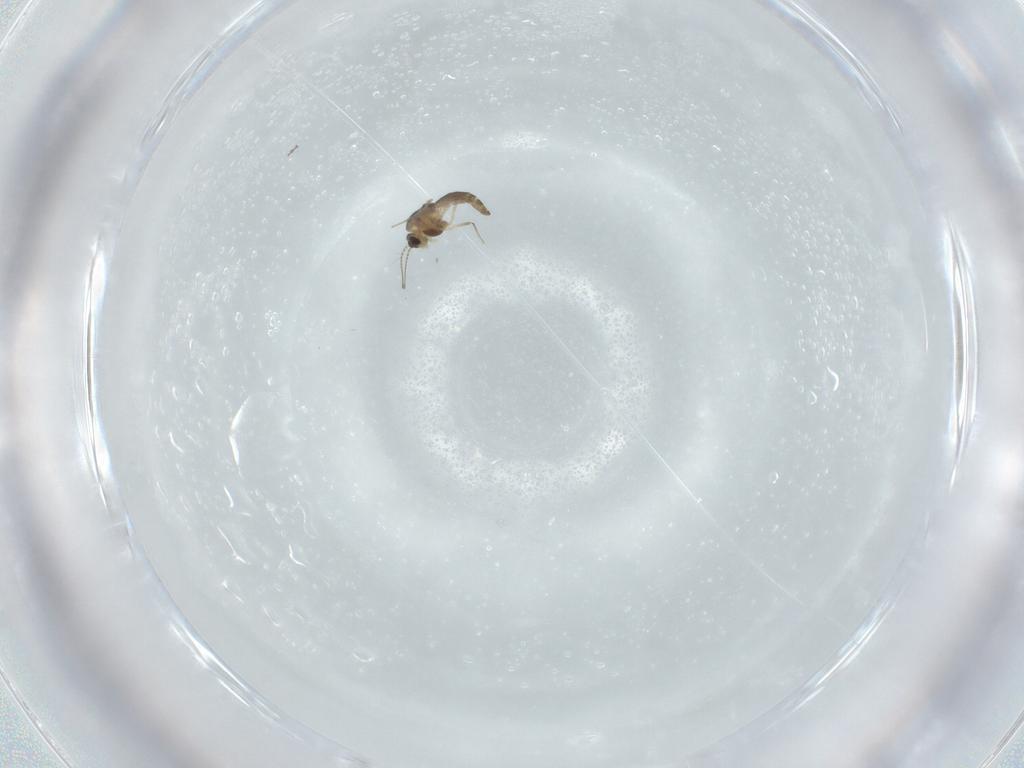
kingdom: Animalia
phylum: Arthropoda
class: Insecta
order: Diptera
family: Chironomidae
